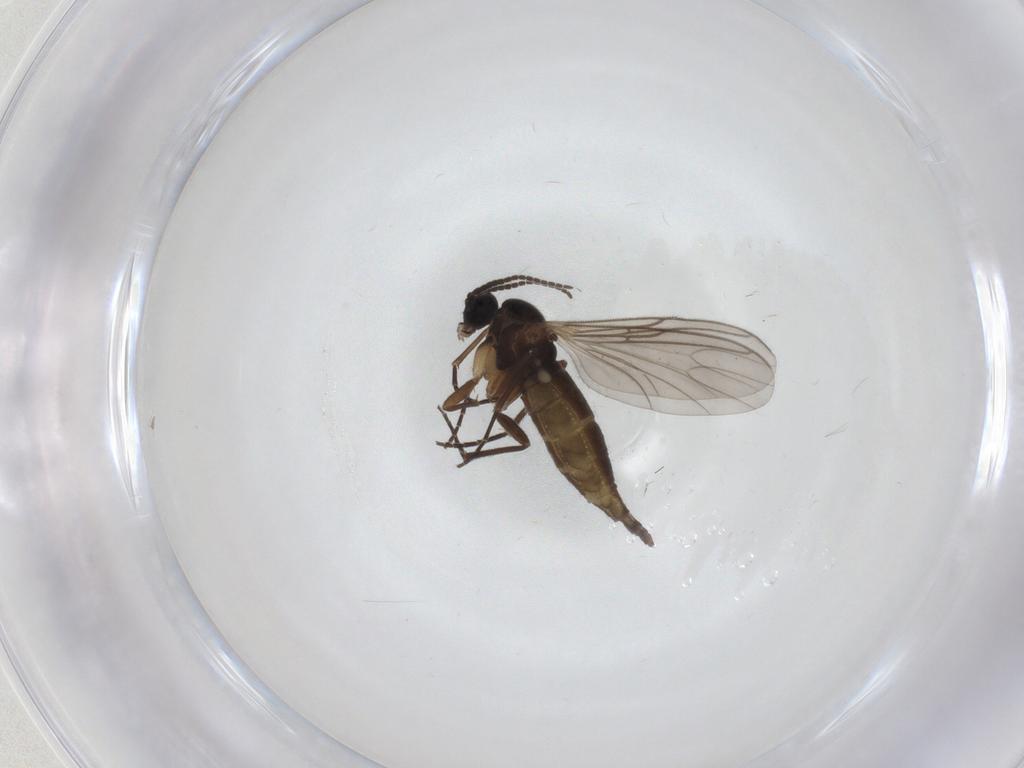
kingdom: Animalia
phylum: Arthropoda
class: Insecta
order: Diptera
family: Sciaridae
